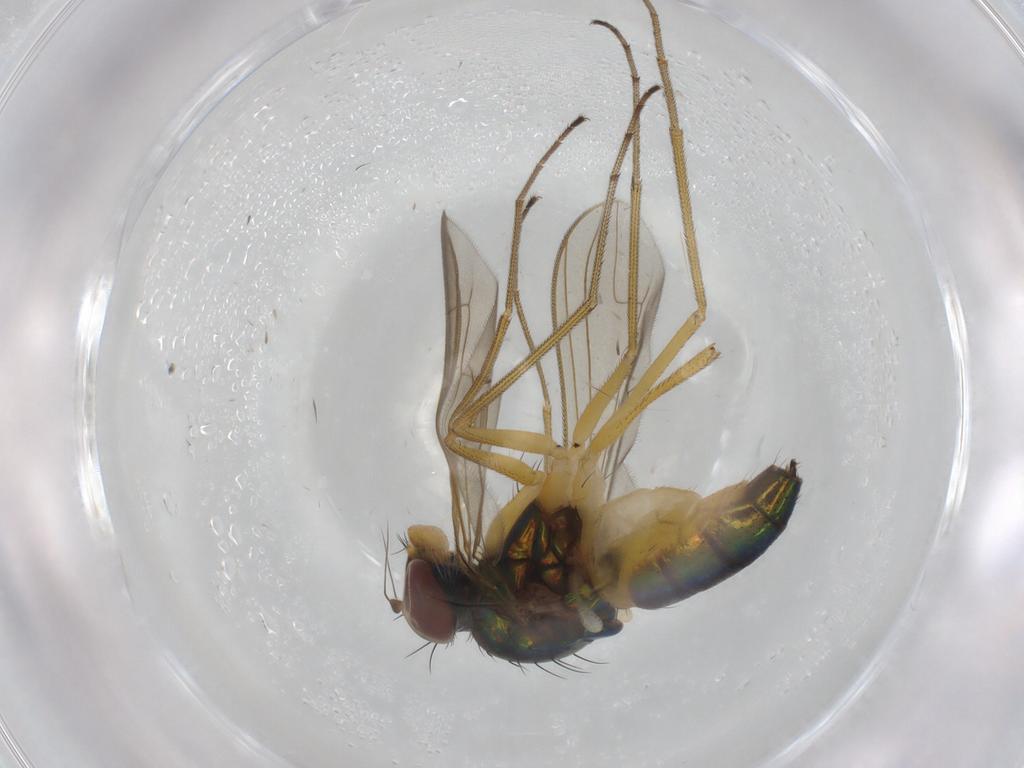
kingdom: Animalia
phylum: Arthropoda
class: Insecta
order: Diptera
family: Dolichopodidae
